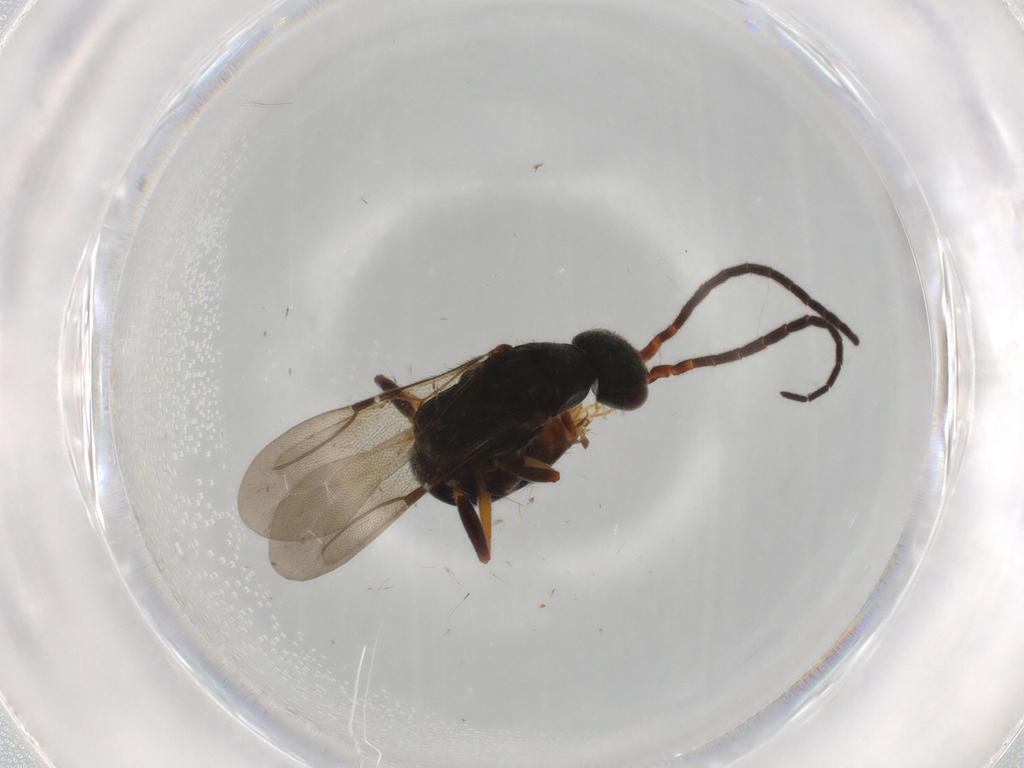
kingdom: Animalia
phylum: Arthropoda
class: Insecta
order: Hymenoptera
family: Bethylidae
